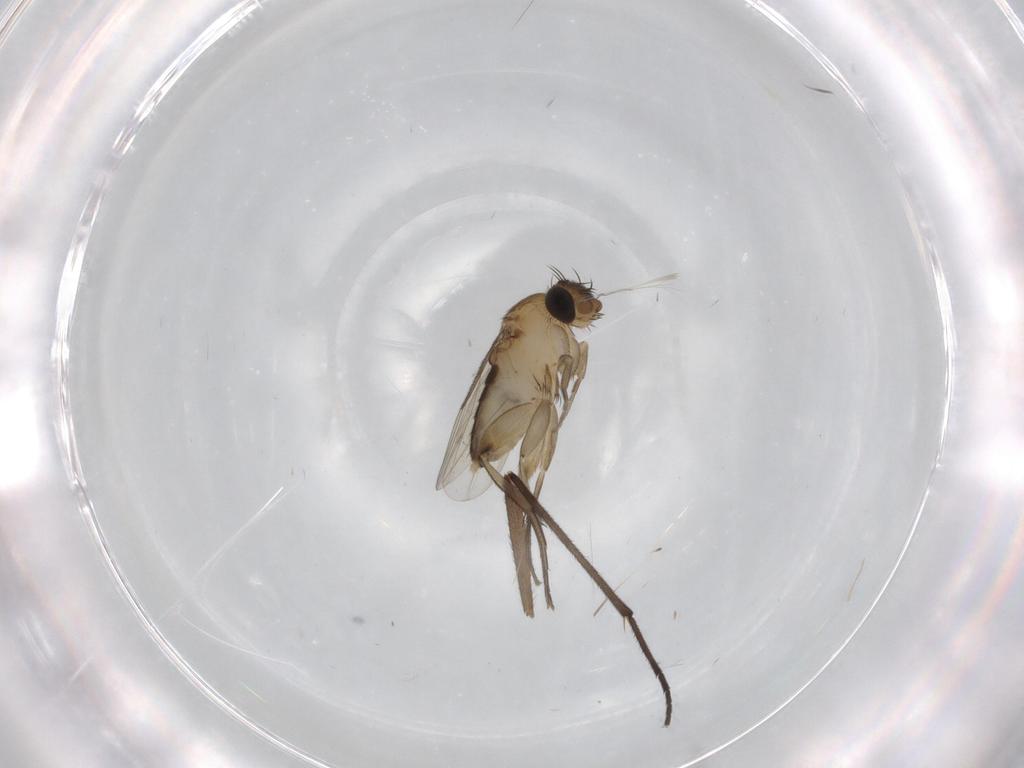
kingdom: Animalia
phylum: Arthropoda
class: Insecta
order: Diptera
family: Phoridae
